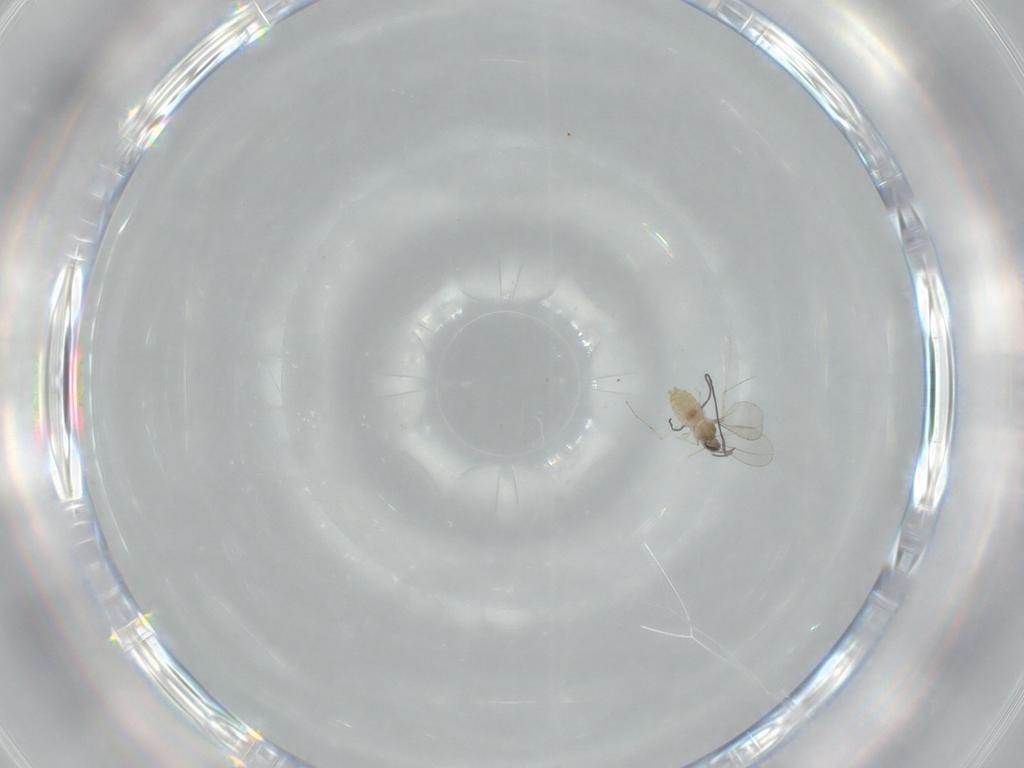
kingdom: Animalia
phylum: Arthropoda
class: Insecta
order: Diptera
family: Cecidomyiidae
